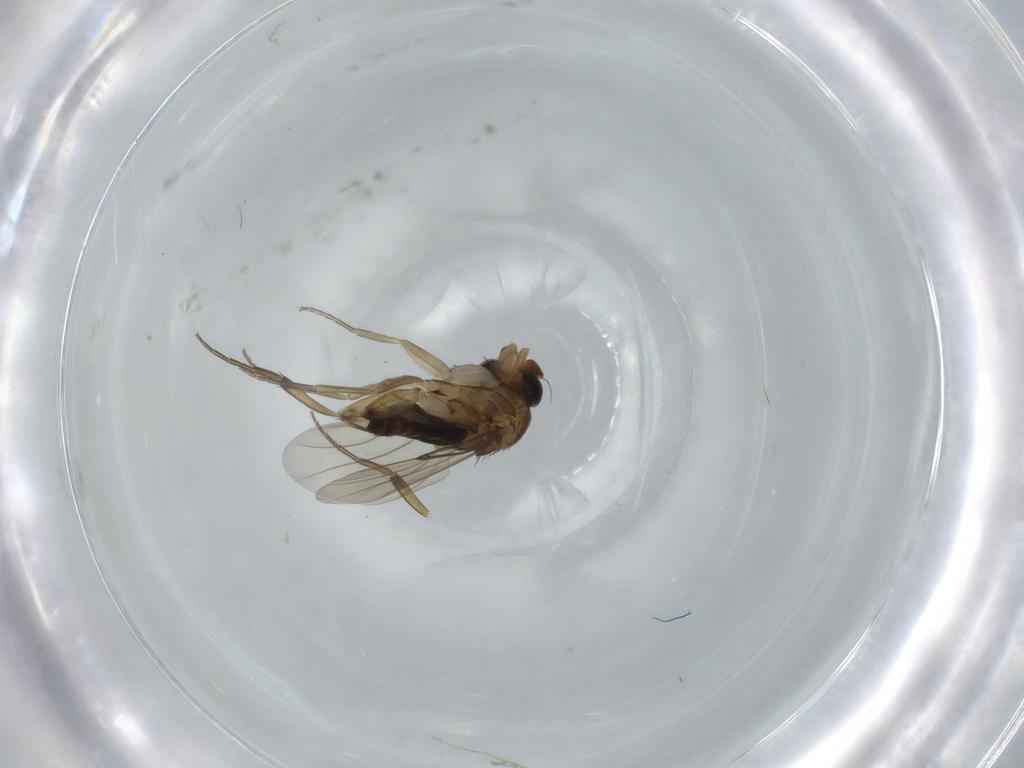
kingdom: Animalia
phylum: Arthropoda
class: Insecta
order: Diptera
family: Phoridae
